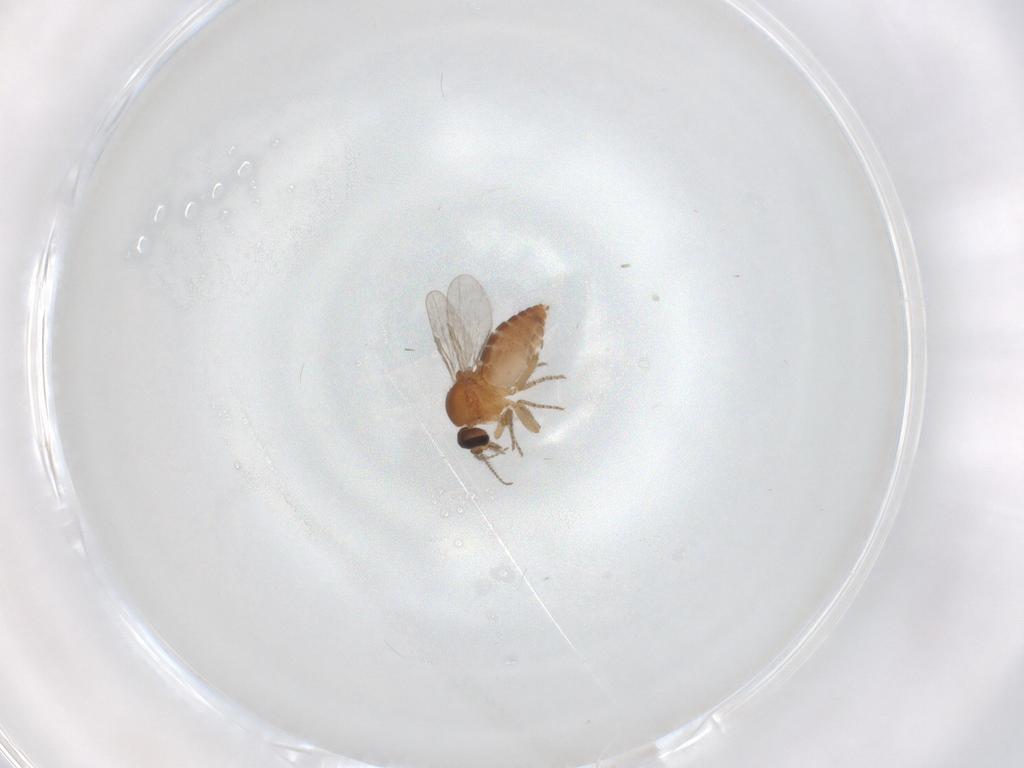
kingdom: Animalia
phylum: Arthropoda
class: Insecta
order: Diptera
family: Ceratopogonidae
